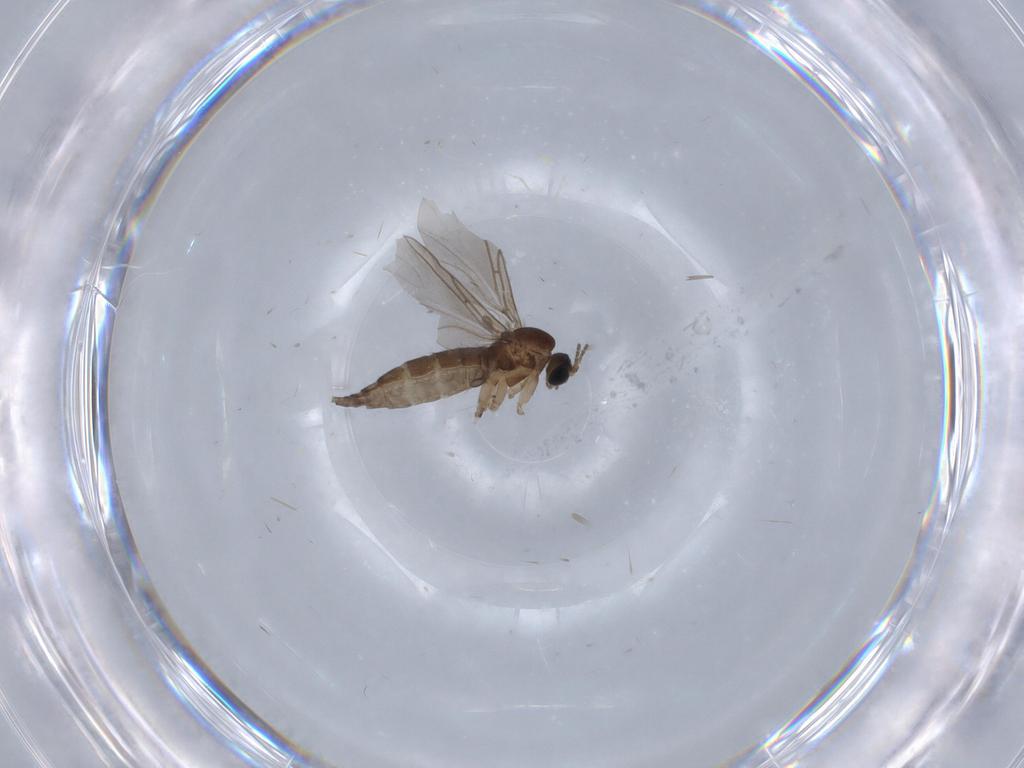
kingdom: Animalia
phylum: Arthropoda
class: Insecta
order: Diptera
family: Sciaridae
